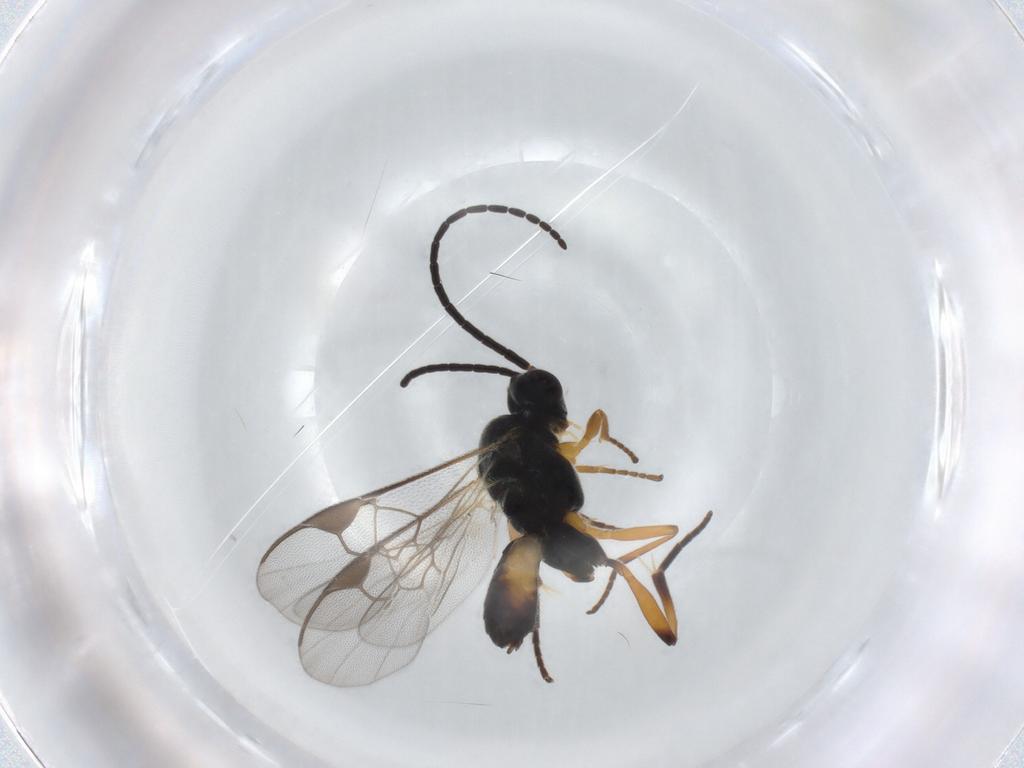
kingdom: Animalia
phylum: Arthropoda
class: Insecta
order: Hymenoptera
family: Braconidae
